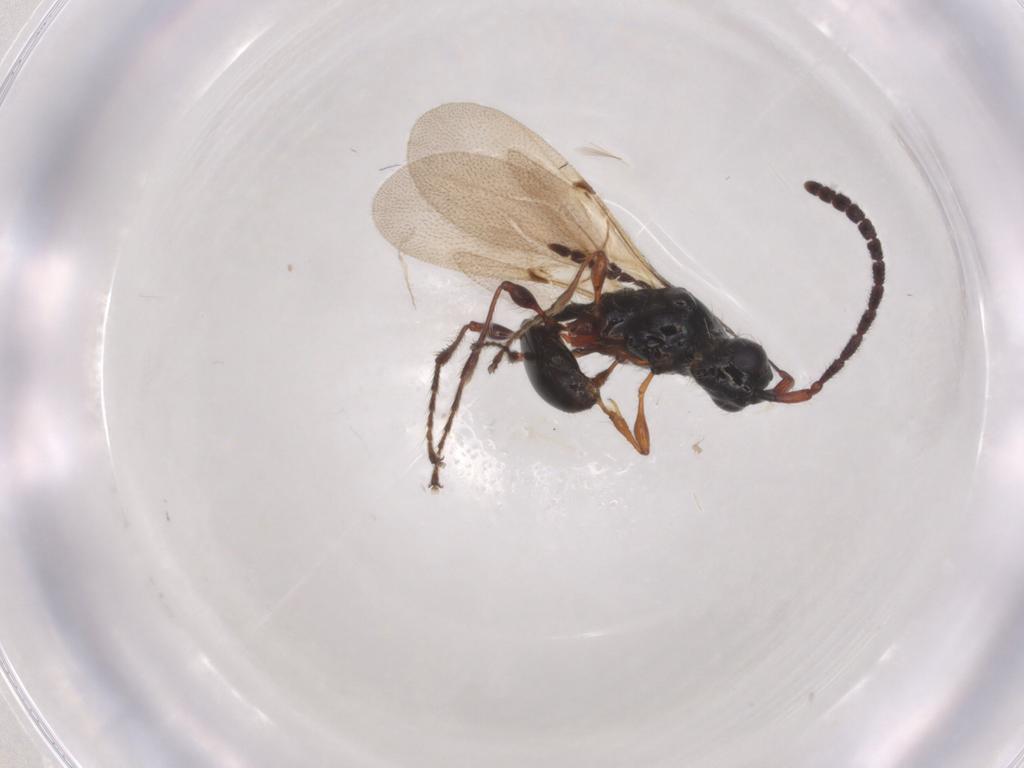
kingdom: Animalia
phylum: Arthropoda
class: Insecta
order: Hymenoptera
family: Diapriidae
